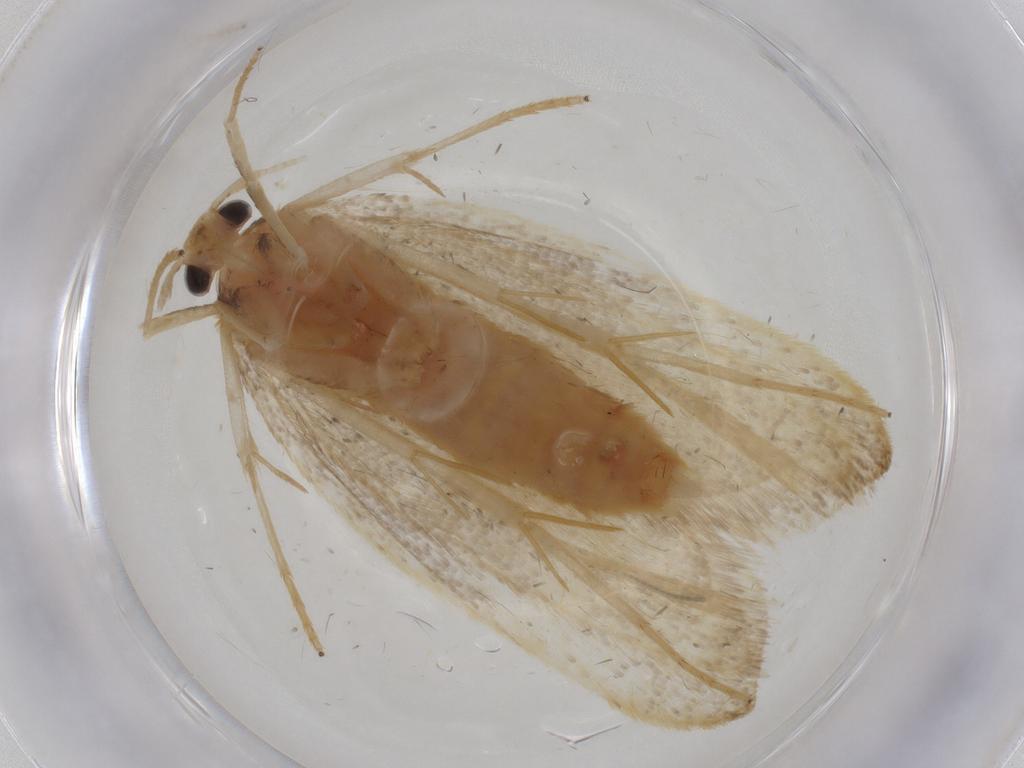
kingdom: Animalia
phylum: Arthropoda
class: Insecta
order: Lepidoptera
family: Lecithoceridae
